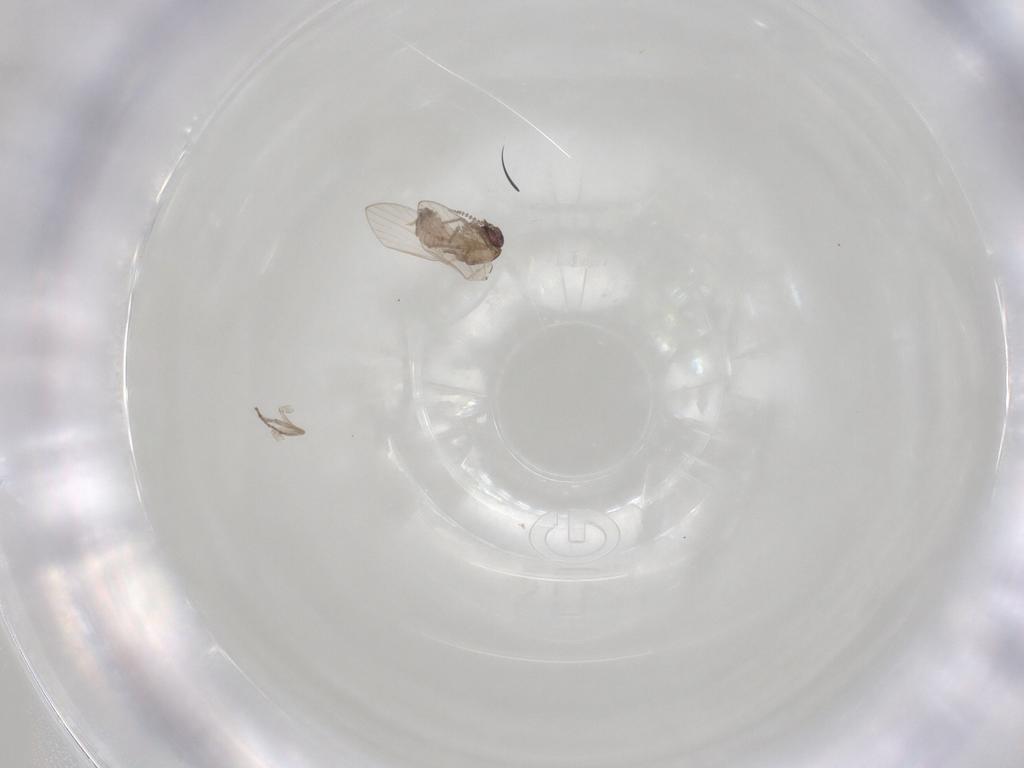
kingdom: Animalia
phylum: Arthropoda
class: Insecta
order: Diptera
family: Psychodidae
